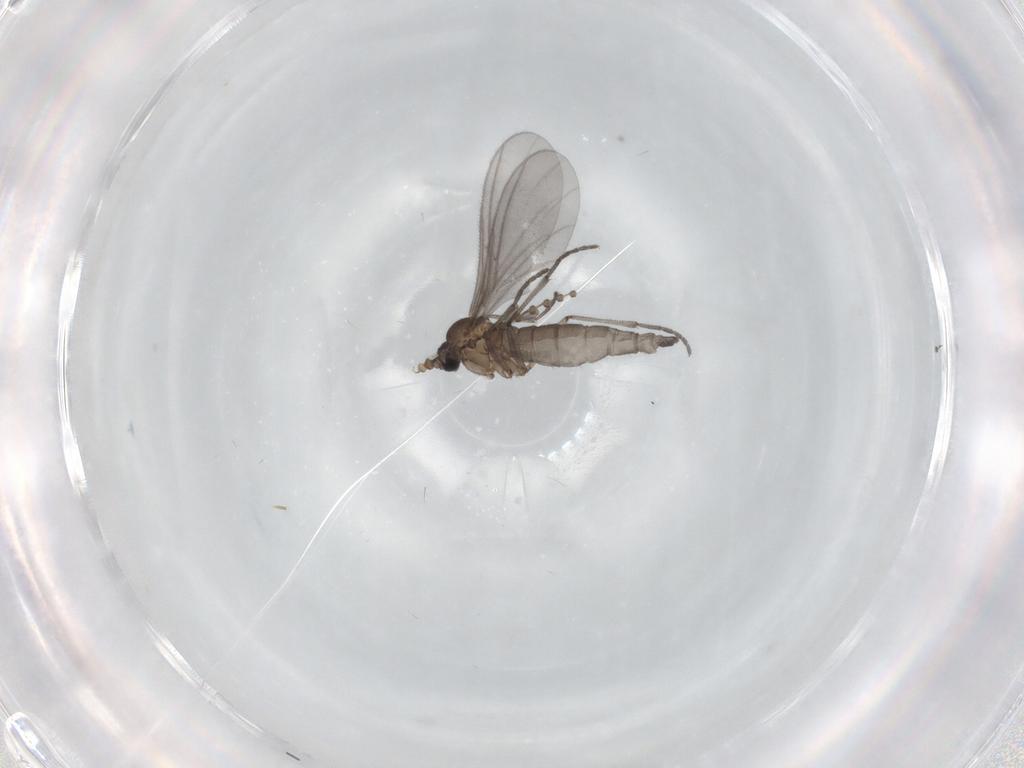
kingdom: Animalia
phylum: Arthropoda
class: Insecta
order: Diptera
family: Sciaridae
